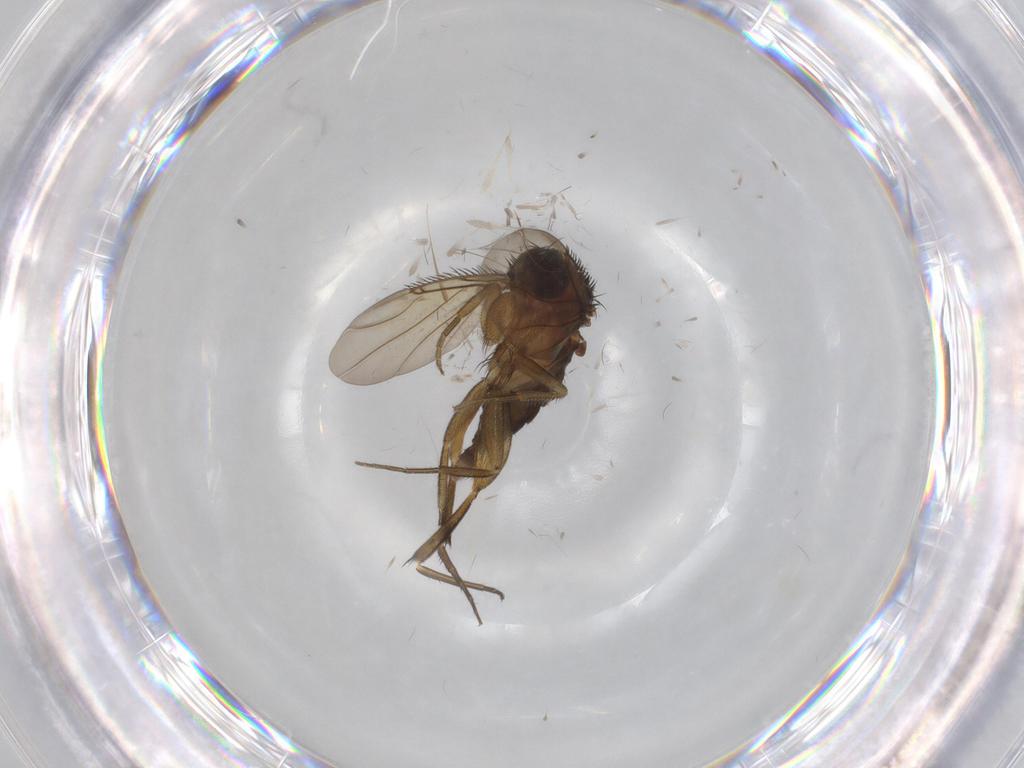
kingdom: Animalia
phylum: Arthropoda
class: Insecta
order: Diptera
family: Phoridae
